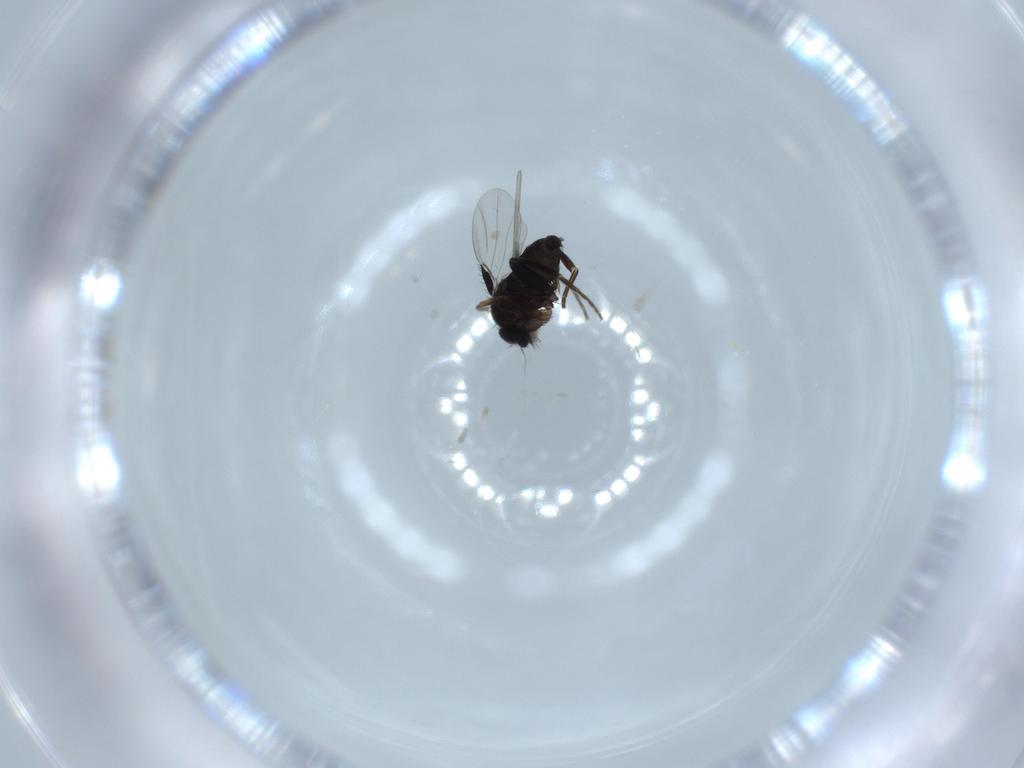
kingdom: Animalia
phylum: Arthropoda
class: Insecta
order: Diptera
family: Phoridae
